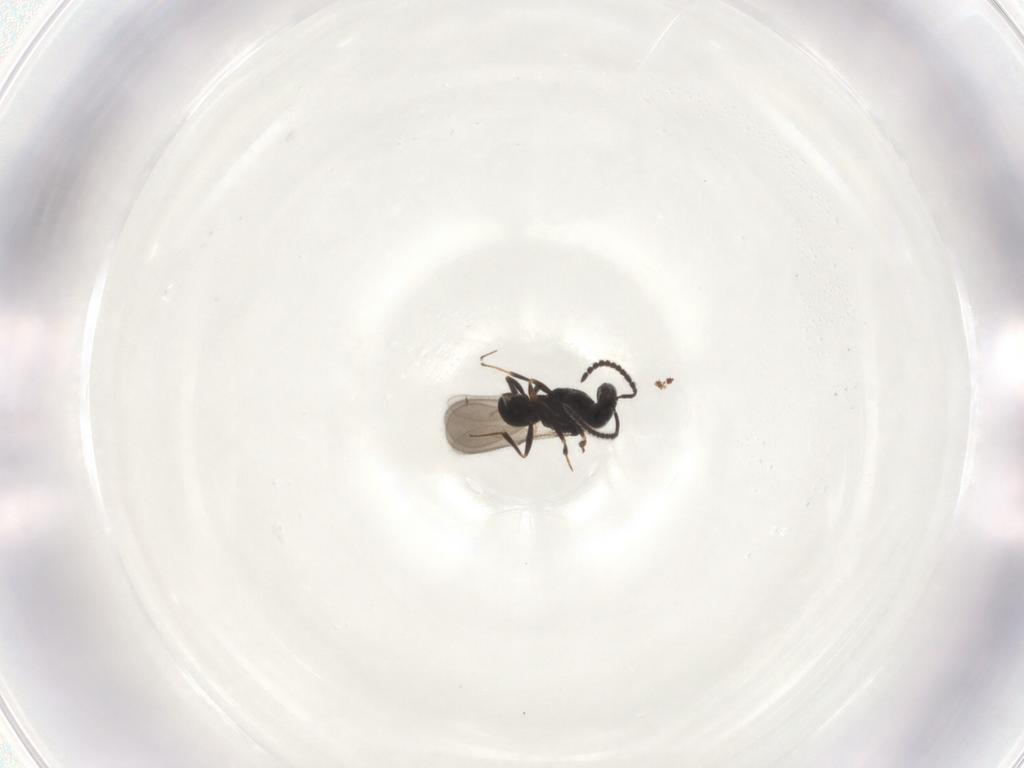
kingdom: Animalia
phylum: Arthropoda
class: Insecta
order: Hymenoptera
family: Scelionidae
